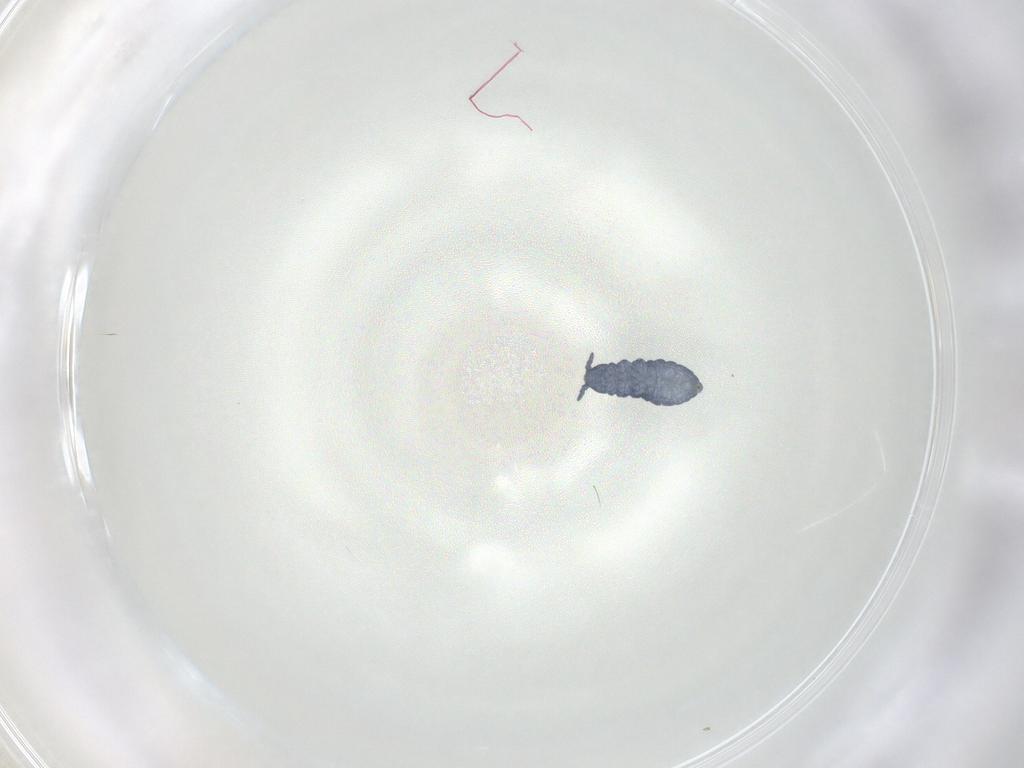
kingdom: Animalia
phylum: Arthropoda
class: Collembola
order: Poduromorpha
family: Hypogastruridae
